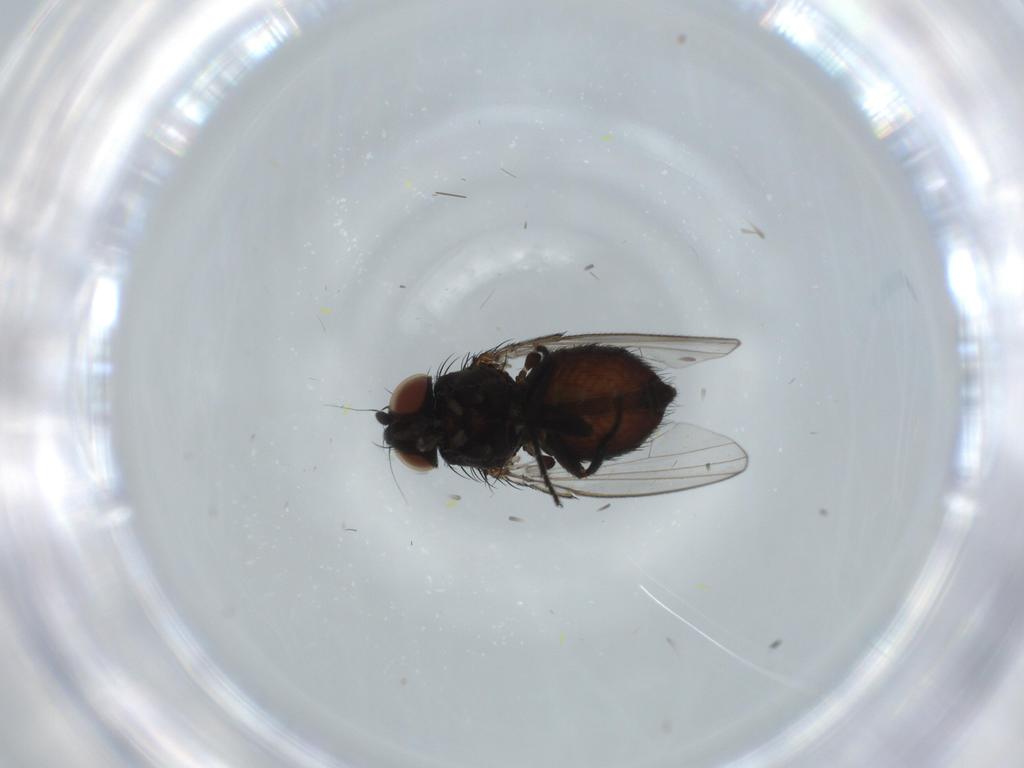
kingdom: Animalia
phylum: Arthropoda
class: Insecta
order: Diptera
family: Milichiidae
